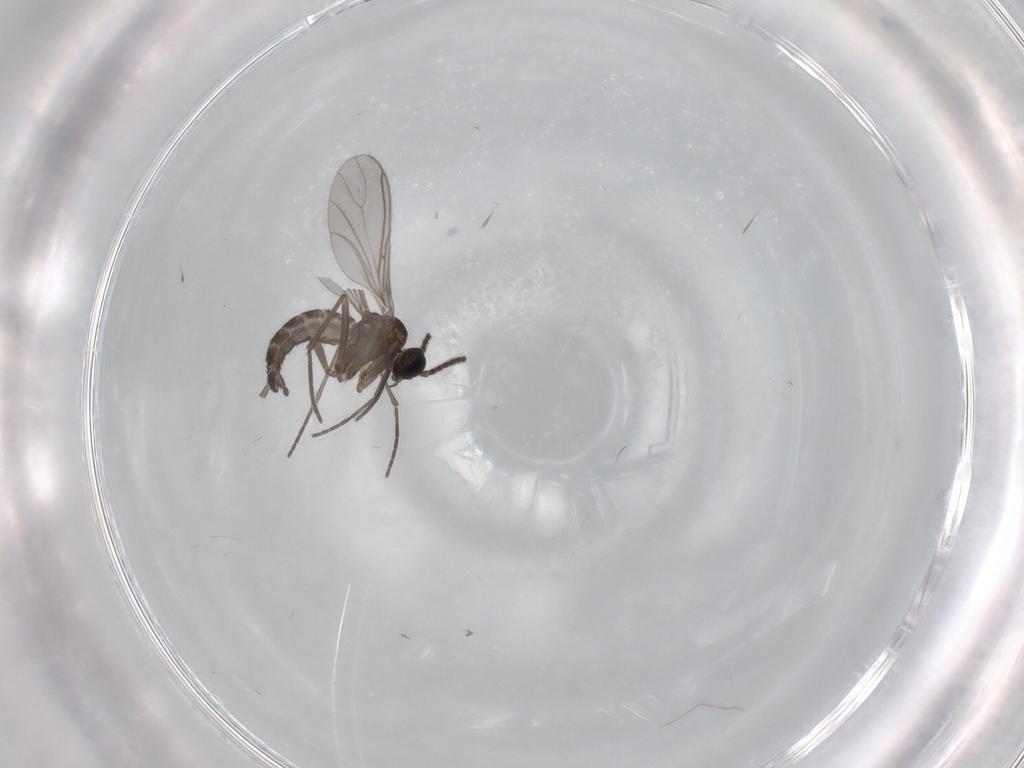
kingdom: Animalia
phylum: Arthropoda
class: Insecta
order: Diptera
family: Sciaridae
